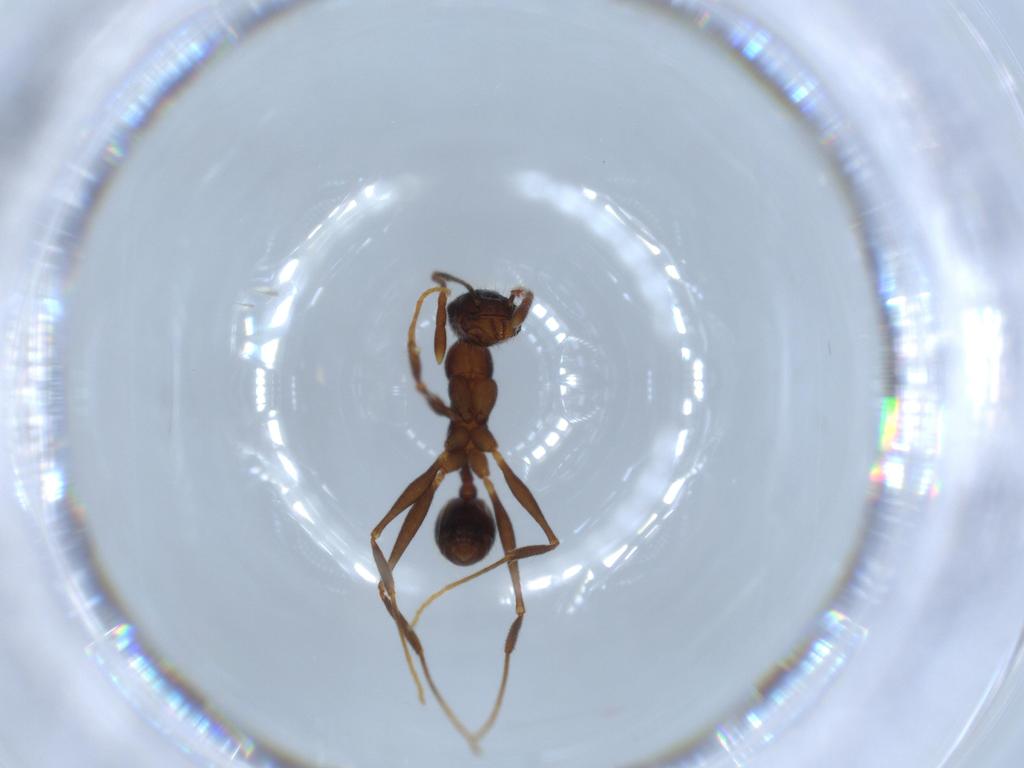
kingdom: Animalia
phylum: Arthropoda
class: Insecta
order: Hymenoptera
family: Formicidae
